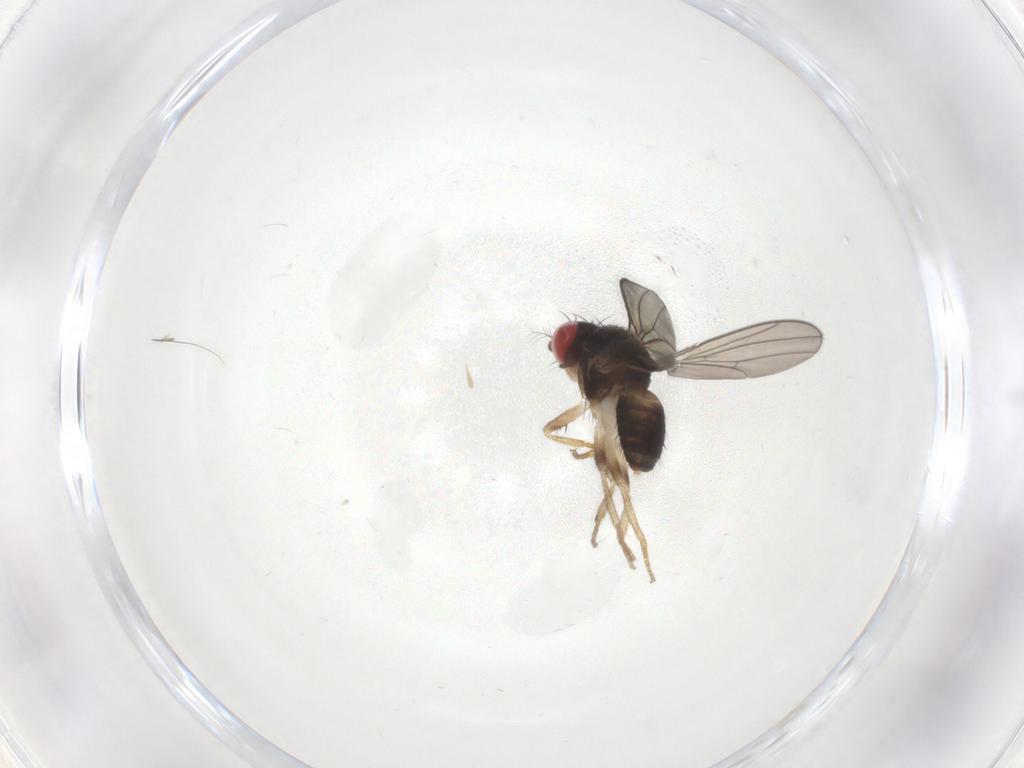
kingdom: Animalia
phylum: Arthropoda
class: Insecta
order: Diptera
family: Drosophilidae
